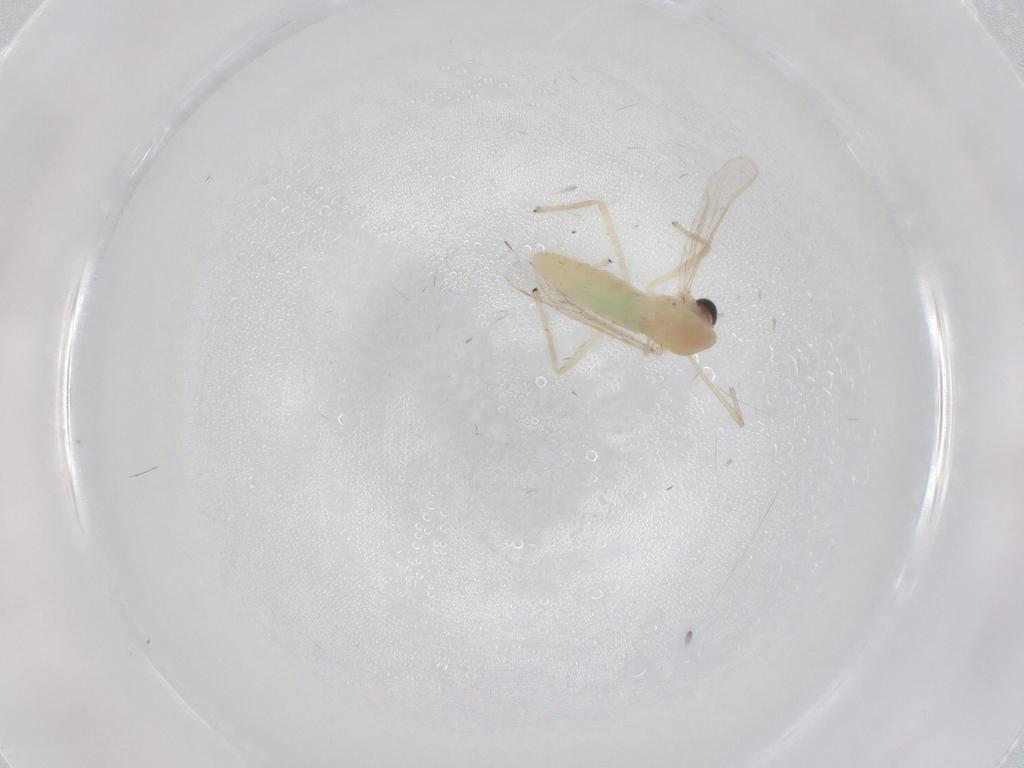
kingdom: Animalia
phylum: Arthropoda
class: Insecta
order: Diptera
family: Chironomidae
